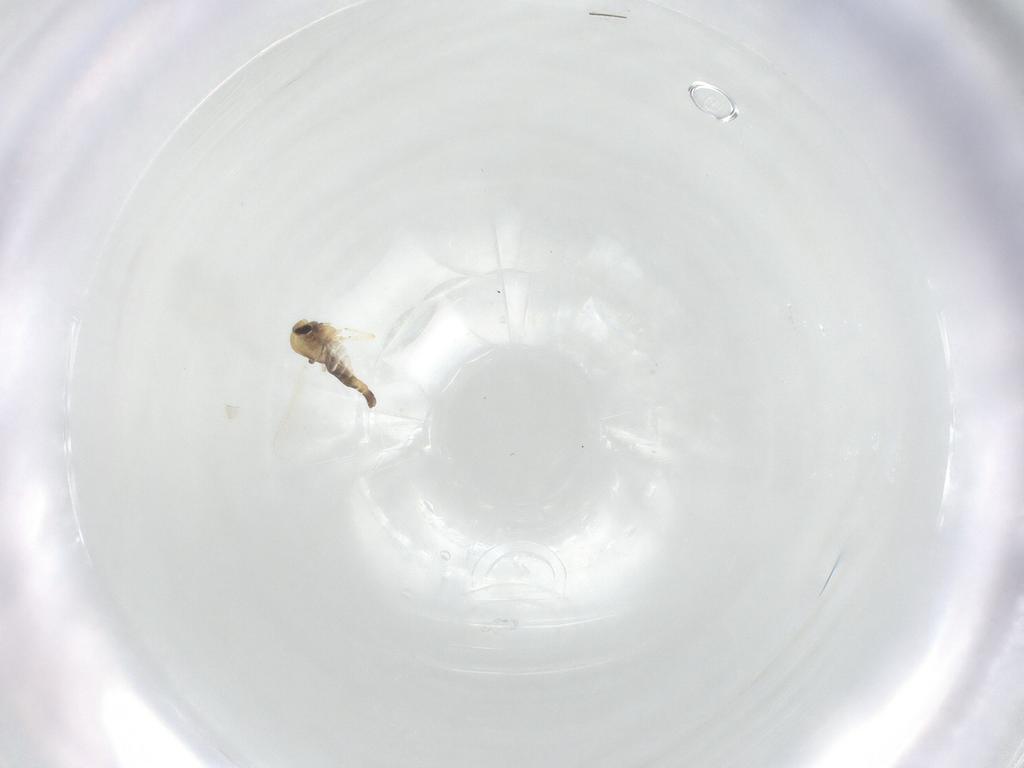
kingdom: Animalia
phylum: Arthropoda
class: Insecta
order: Diptera
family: Chironomidae
